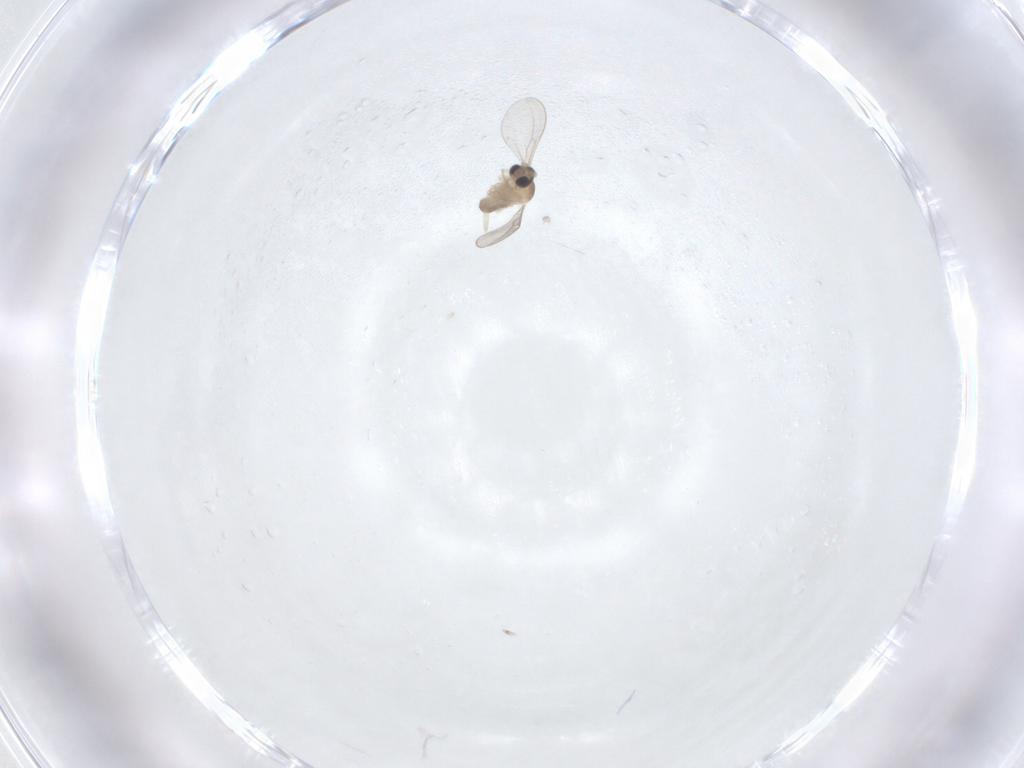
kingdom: Animalia
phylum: Arthropoda
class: Insecta
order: Diptera
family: Cecidomyiidae
